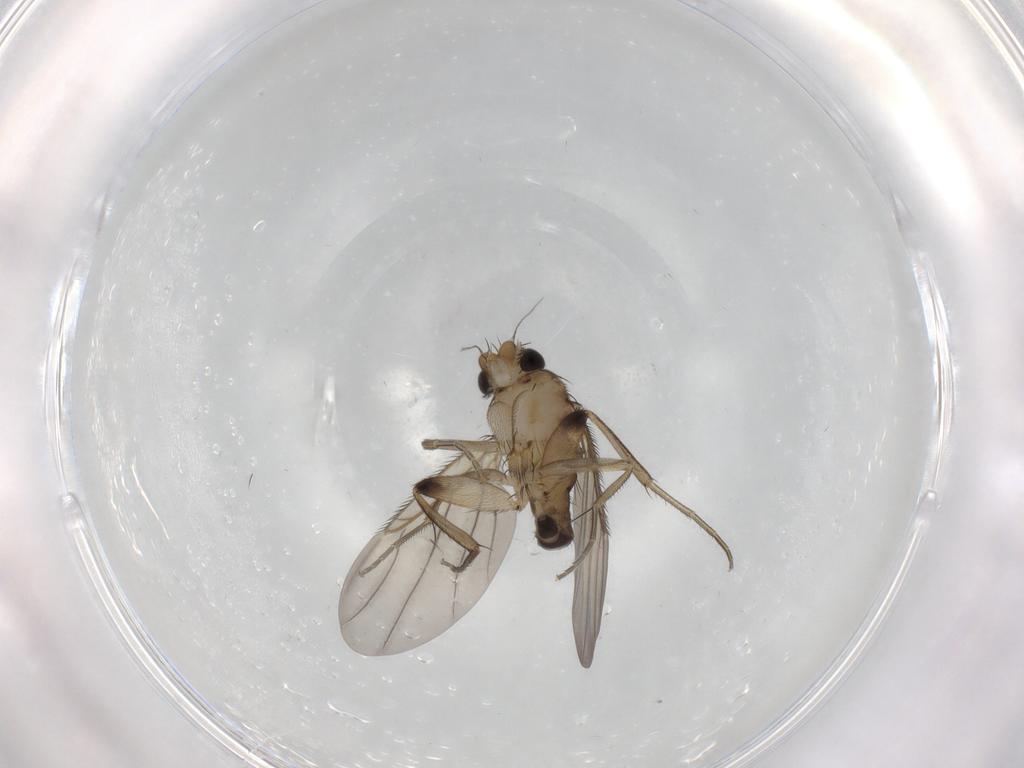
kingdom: Animalia
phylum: Arthropoda
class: Insecta
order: Diptera
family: Phoridae
